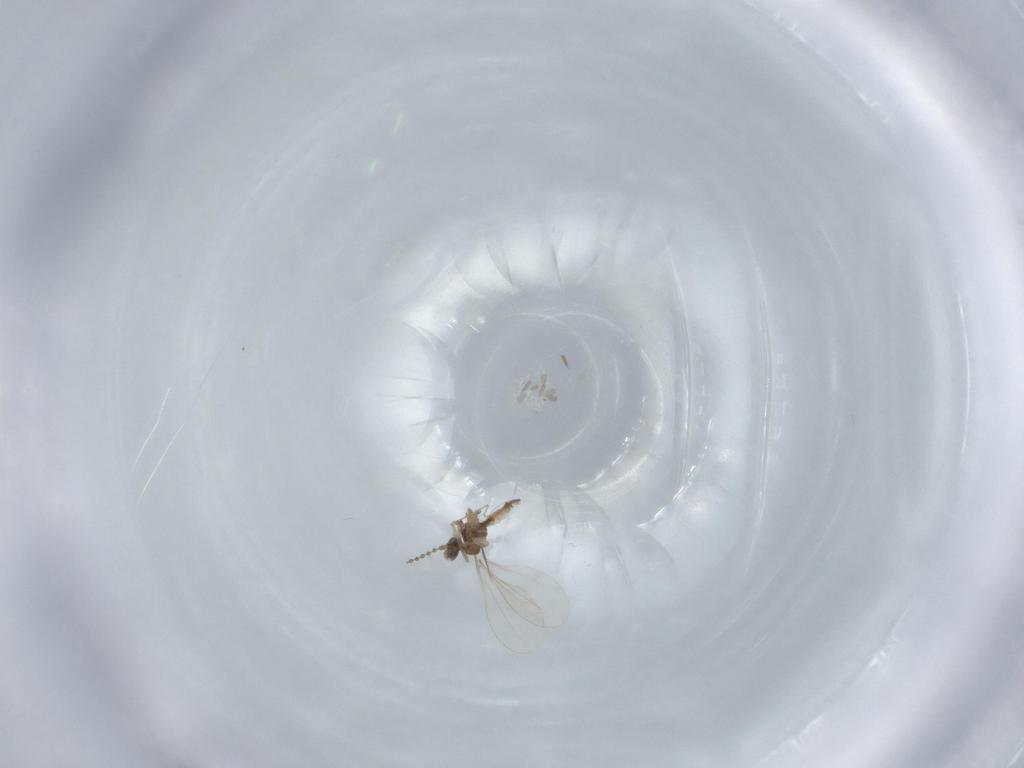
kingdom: Animalia
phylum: Arthropoda
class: Insecta
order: Diptera
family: Cecidomyiidae
